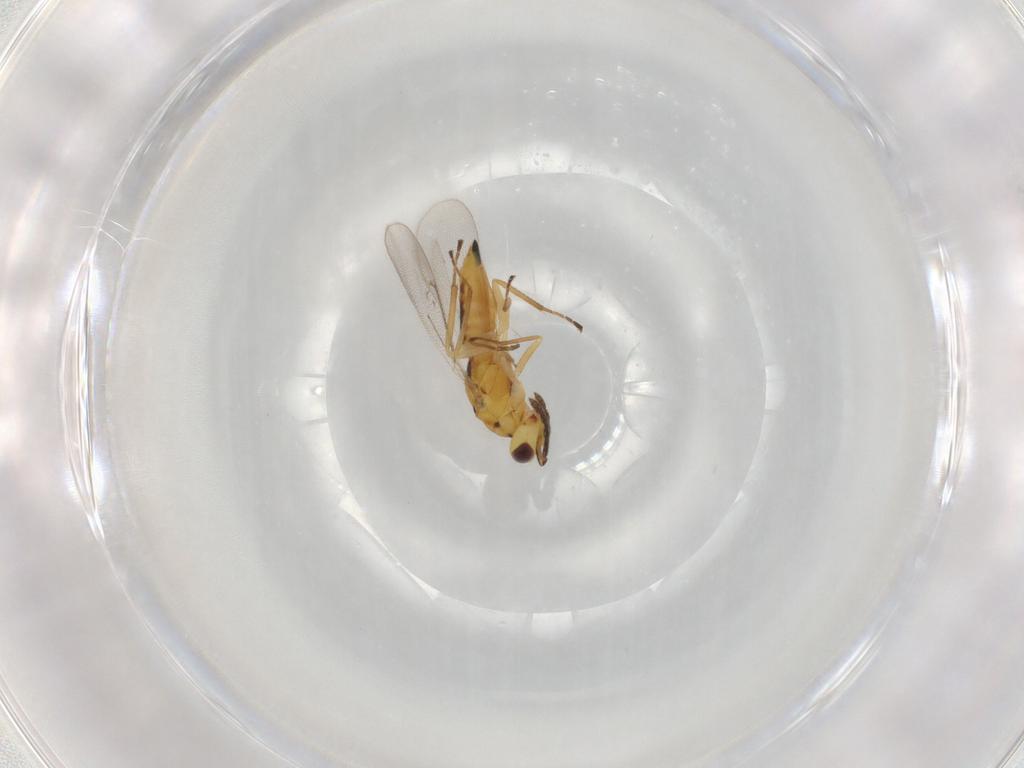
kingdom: Animalia
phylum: Arthropoda
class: Insecta
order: Hymenoptera
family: Eulophidae
